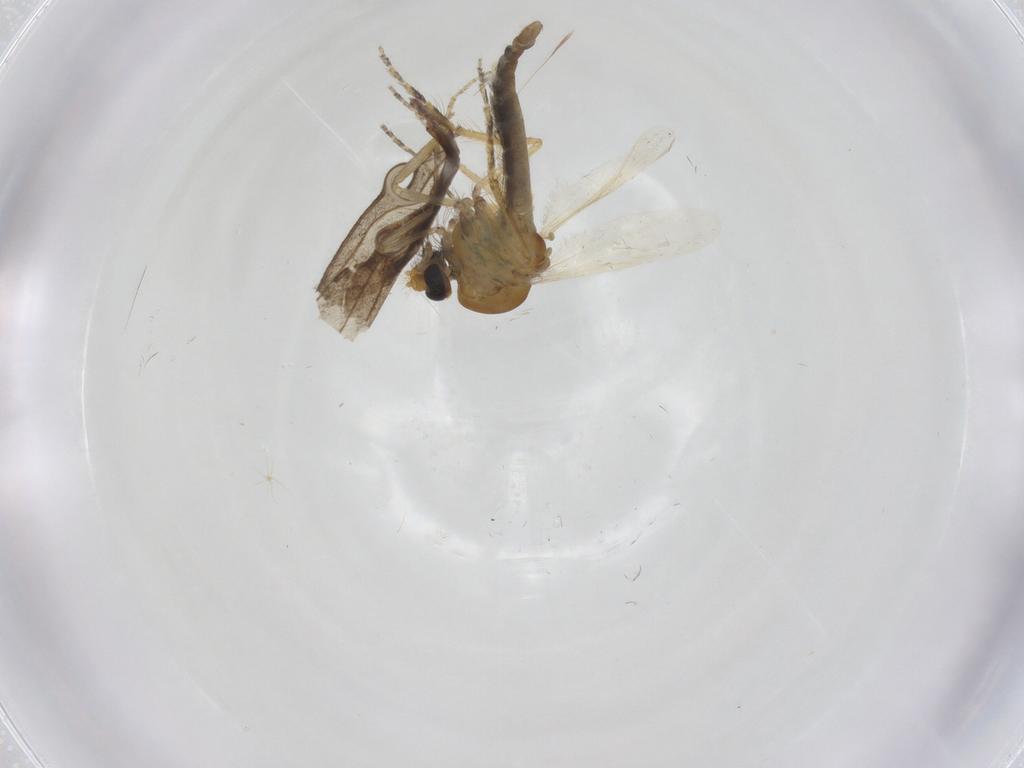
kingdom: Animalia
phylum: Arthropoda
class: Insecta
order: Diptera
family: Ceratopogonidae
